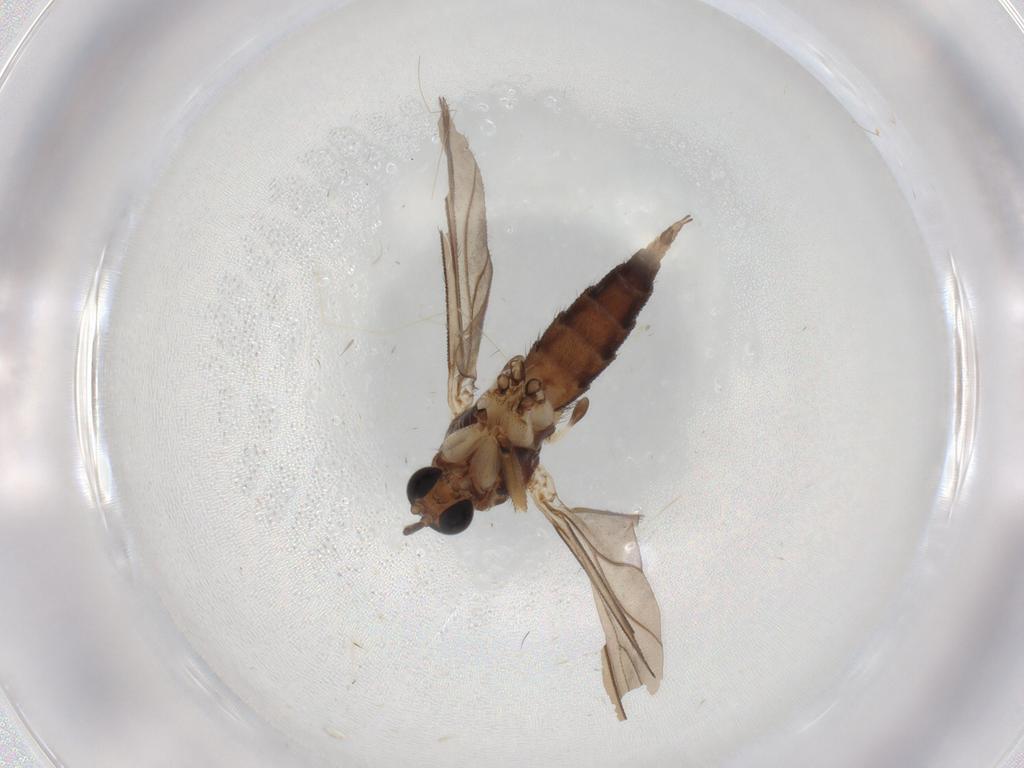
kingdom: Animalia
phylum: Arthropoda
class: Insecta
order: Diptera
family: Sciaridae
